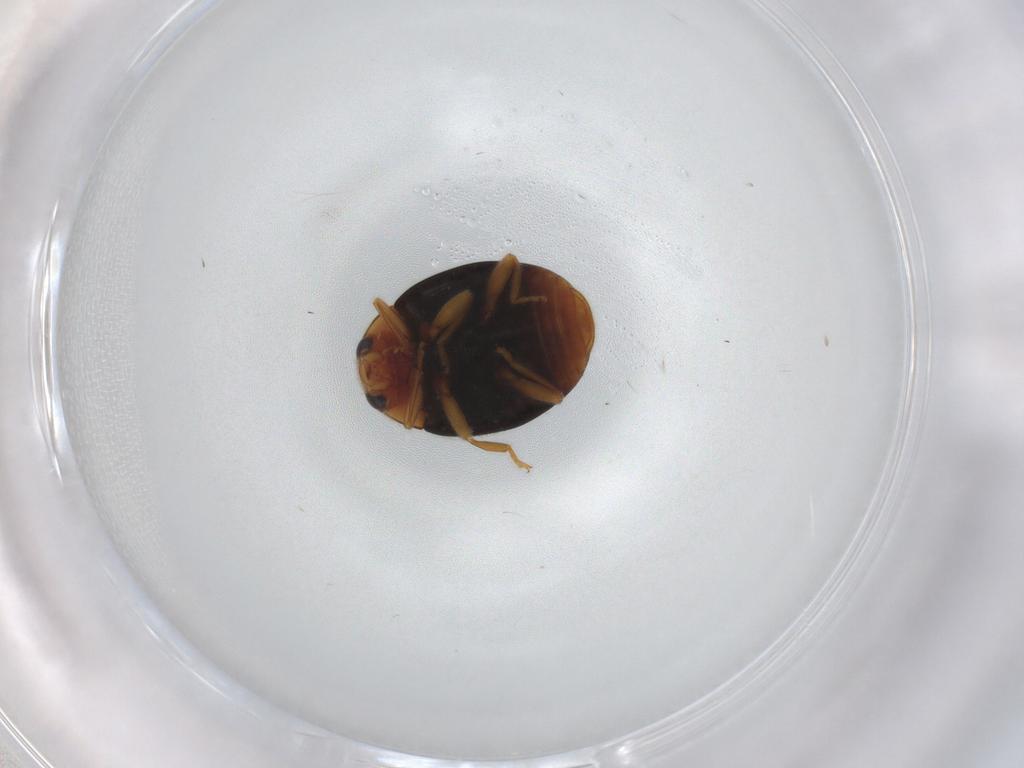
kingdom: Animalia
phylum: Arthropoda
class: Insecta
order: Coleoptera
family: Coccinellidae
